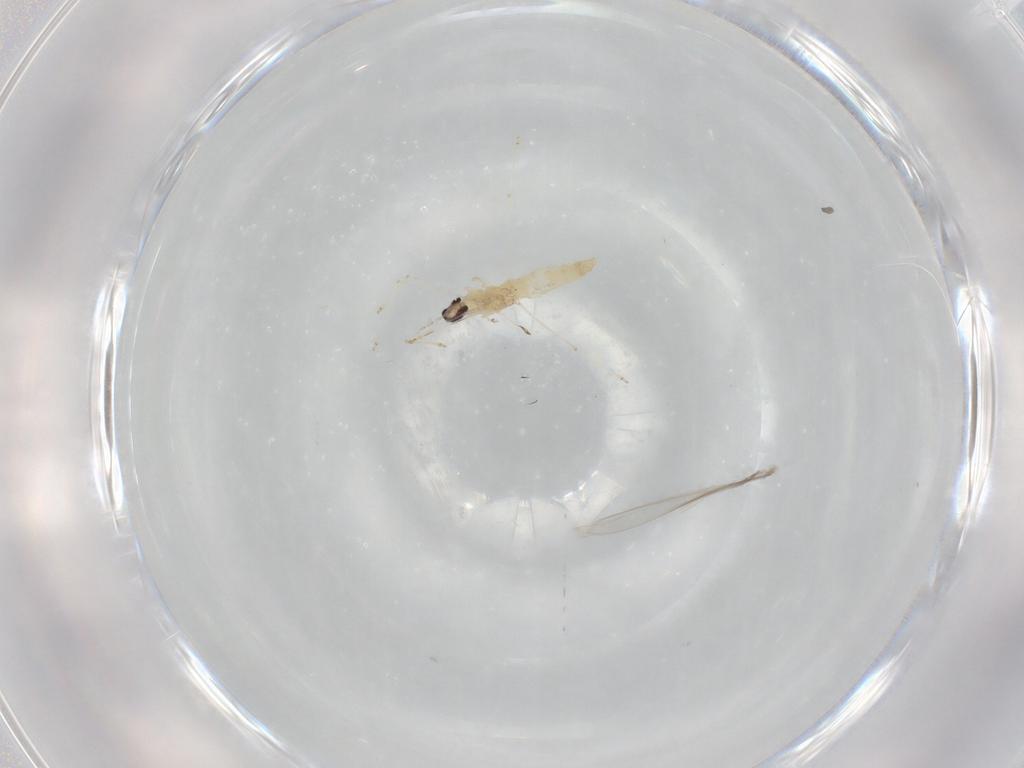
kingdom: Animalia
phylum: Arthropoda
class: Insecta
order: Diptera
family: Cecidomyiidae
